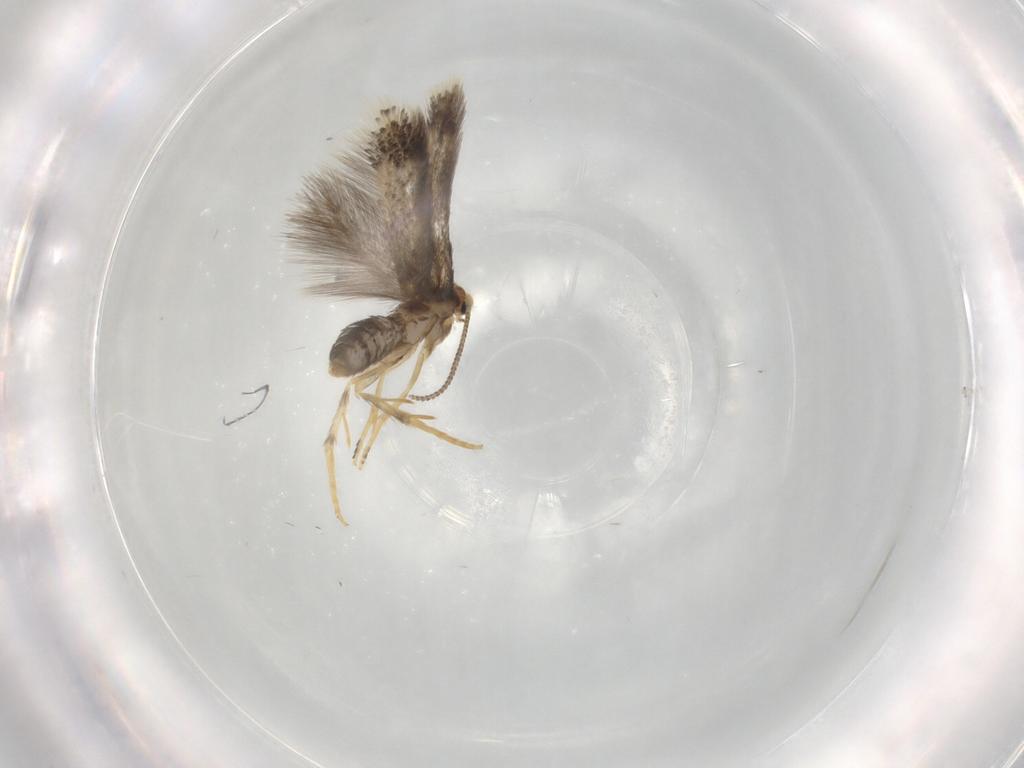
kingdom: Animalia
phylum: Arthropoda
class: Insecta
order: Lepidoptera
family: Nepticulidae
